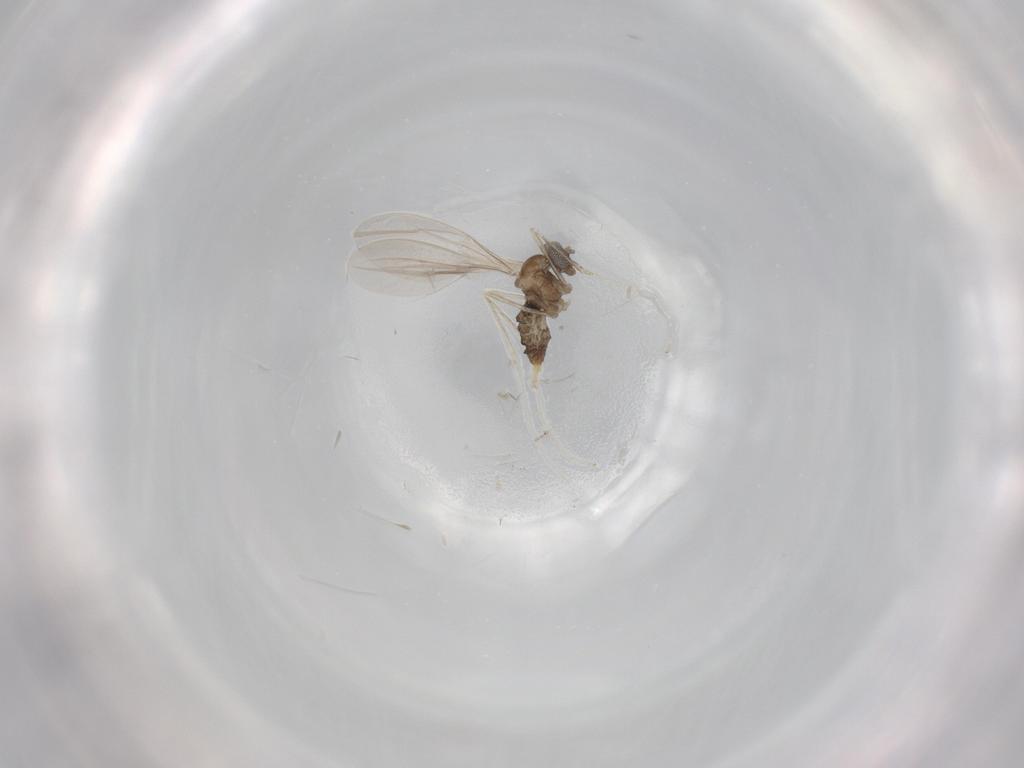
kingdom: Animalia
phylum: Arthropoda
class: Insecta
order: Diptera
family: Cecidomyiidae
